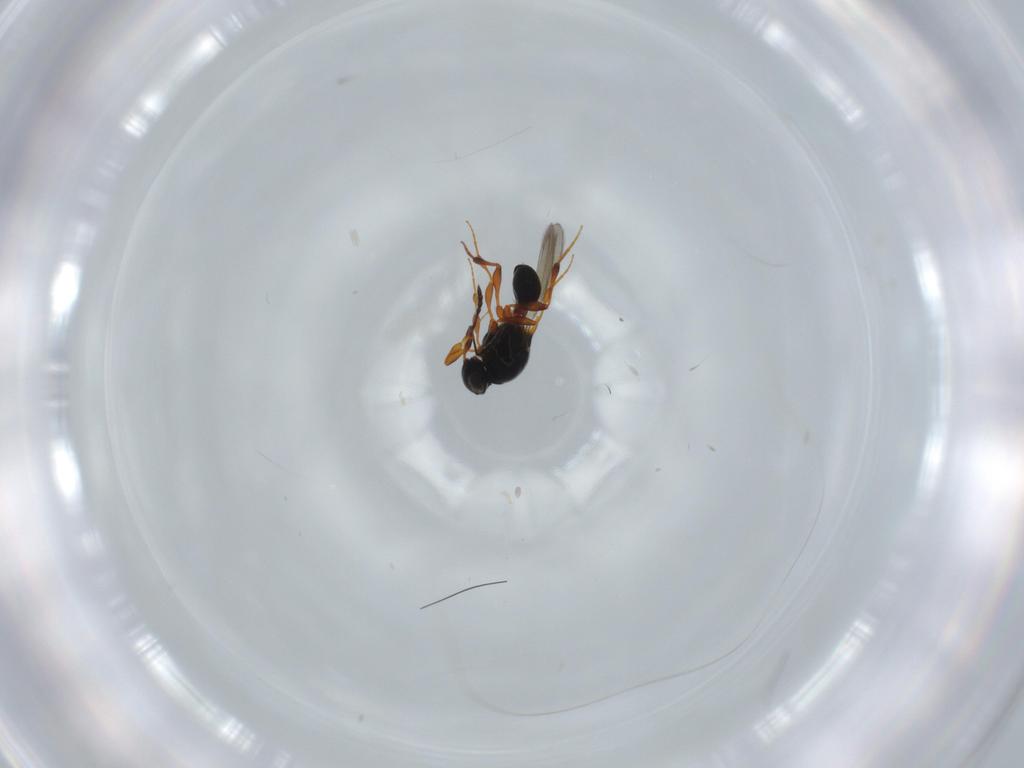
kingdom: Animalia
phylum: Arthropoda
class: Insecta
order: Hymenoptera
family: Platygastridae
